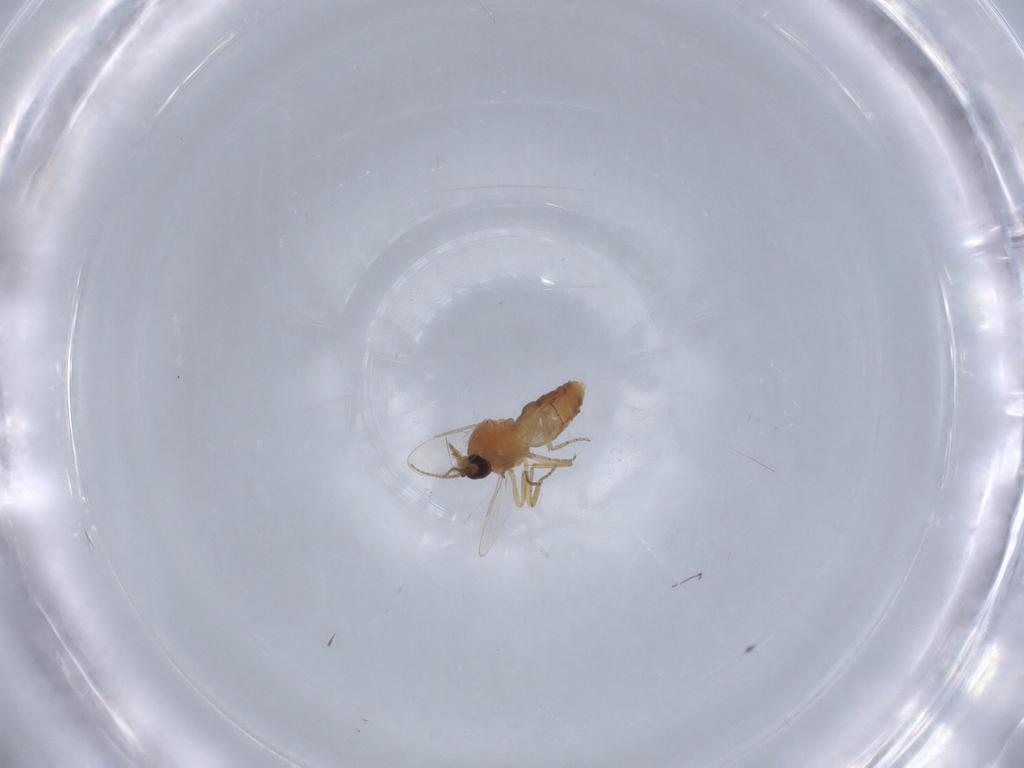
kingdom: Animalia
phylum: Arthropoda
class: Insecta
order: Diptera
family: Ceratopogonidae
